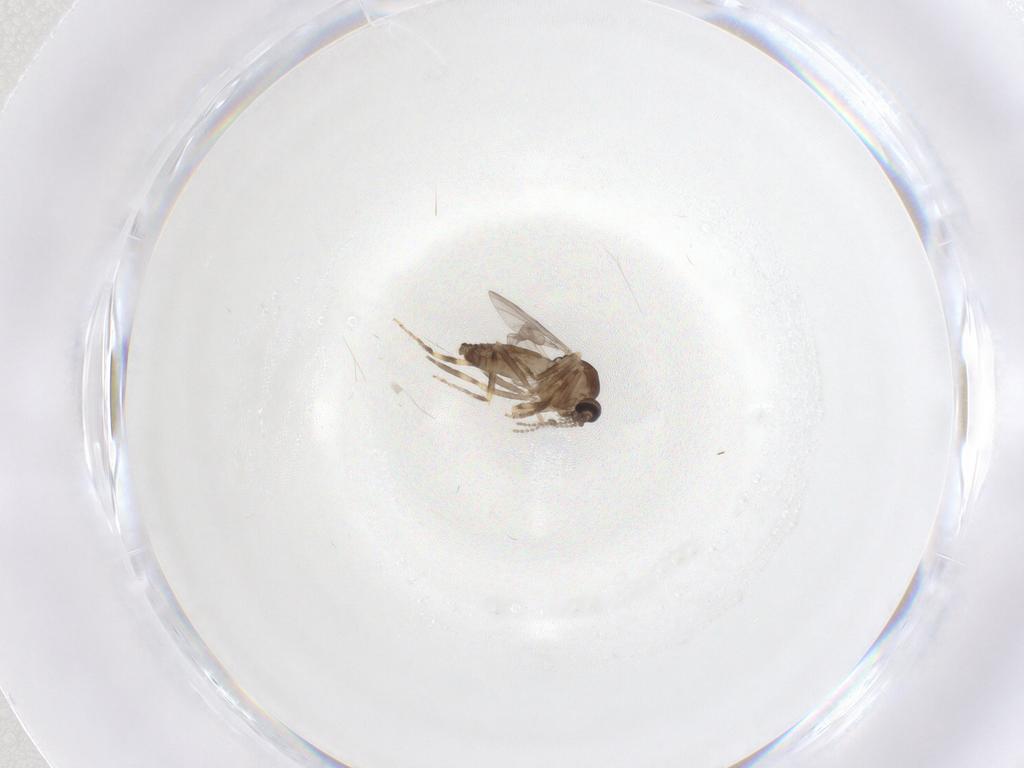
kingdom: Animalia
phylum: Arthropoda
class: Insecta
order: Diptera
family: Ceratopogonidae
